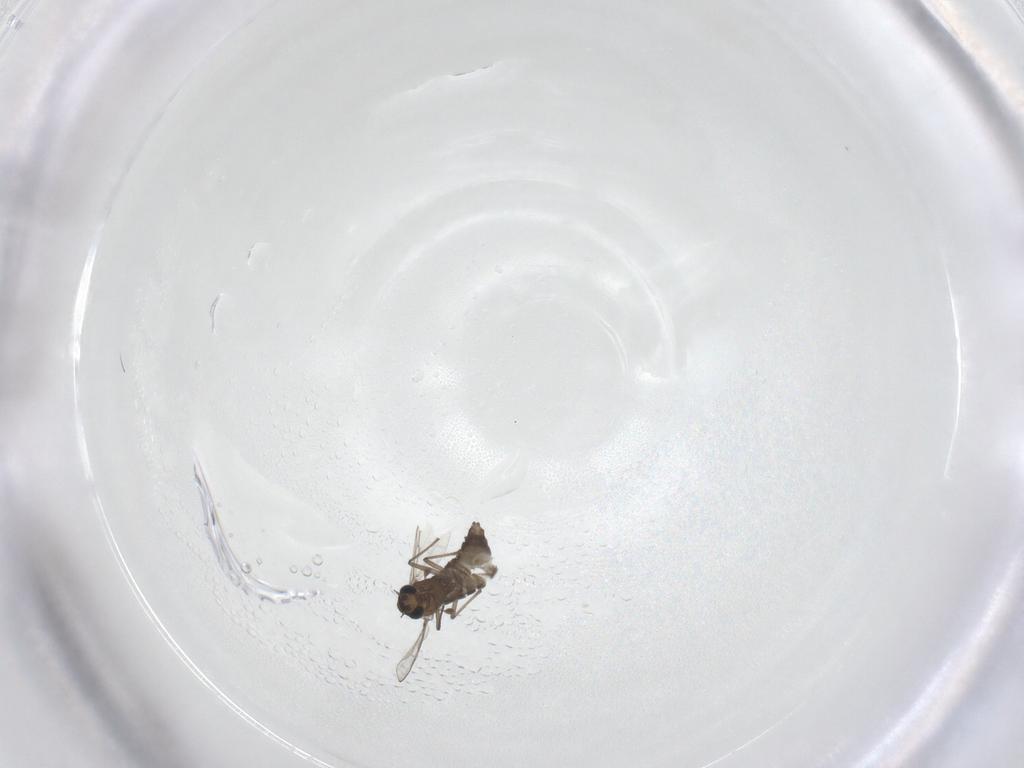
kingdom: Animalia
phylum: Arthropoda
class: Insecta
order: Diptera
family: Chironomidae
